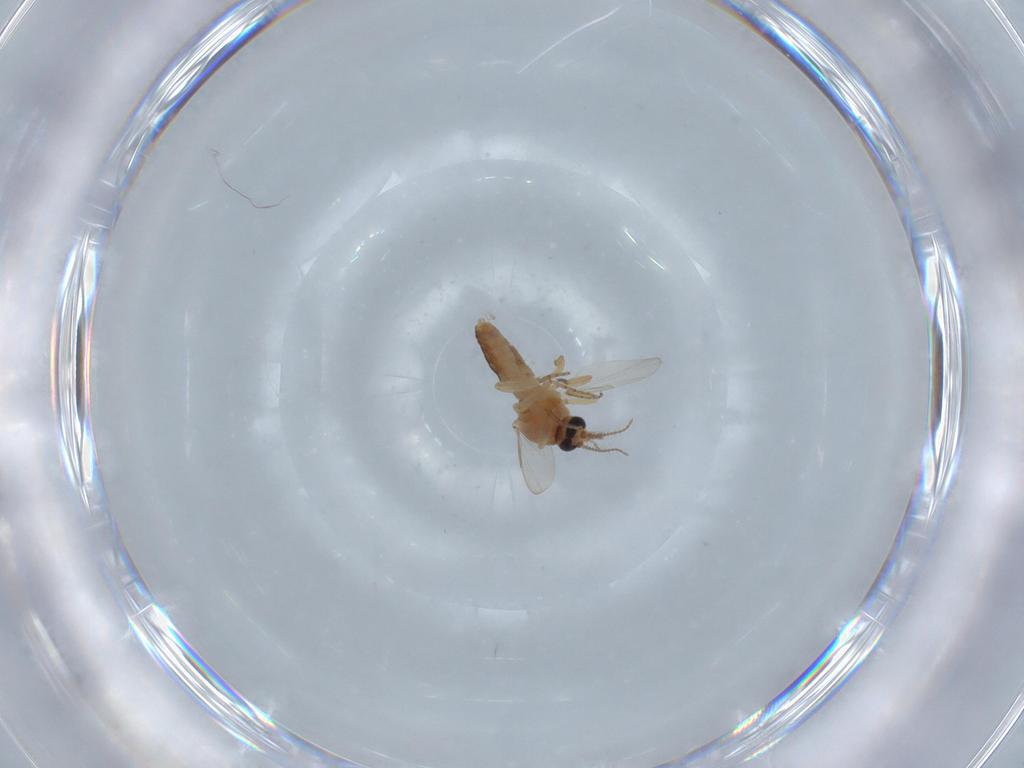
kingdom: Animalia
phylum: Arthropoda
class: Insecta
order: Diptera
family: Ceratopogonidae
